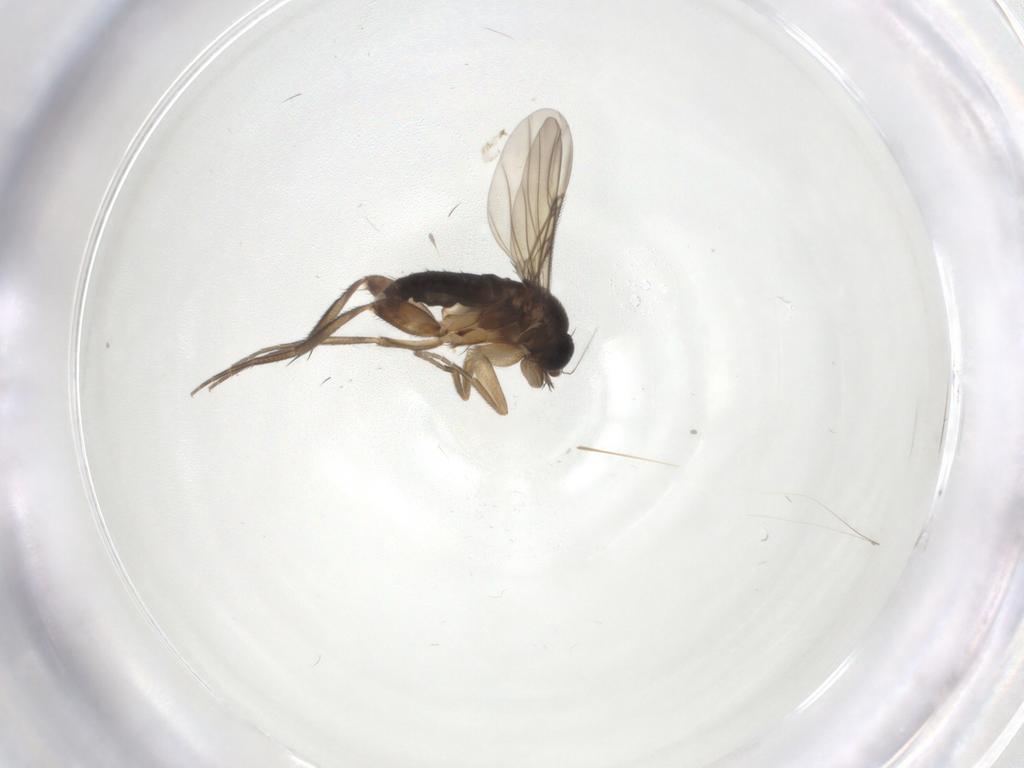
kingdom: Animalia
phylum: Arthropoda
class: Insecta
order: Diptera
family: Phoridae
